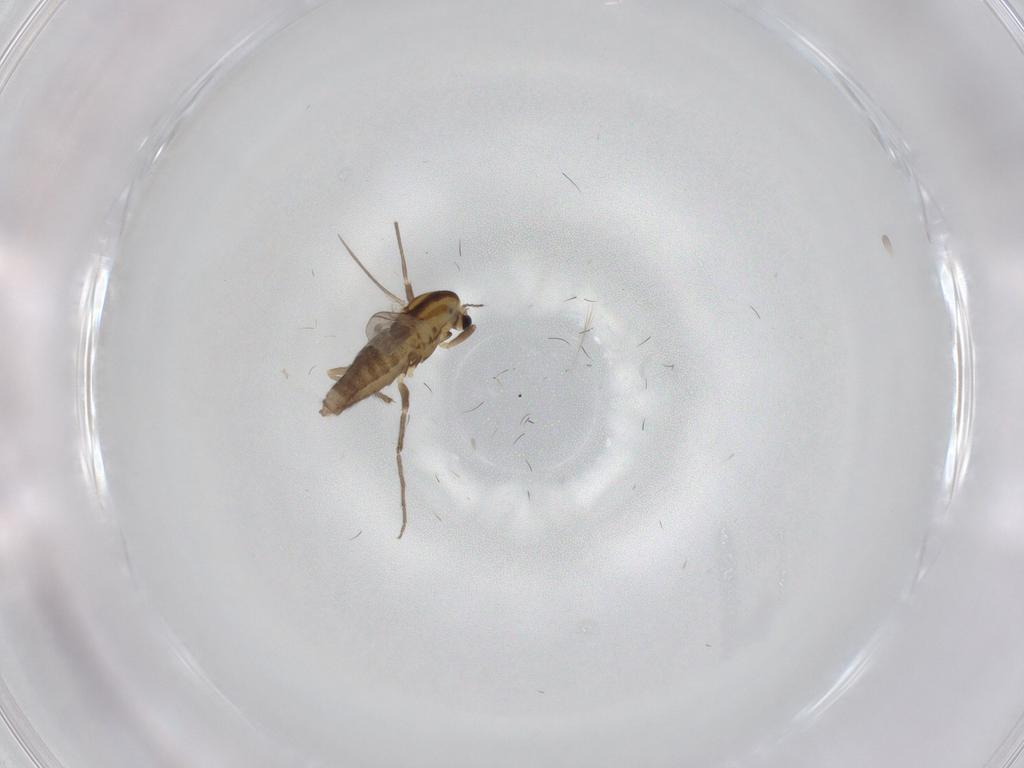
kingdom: Animalia
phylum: Arthropoda
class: Insecta
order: Diptera
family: Chironomidae
